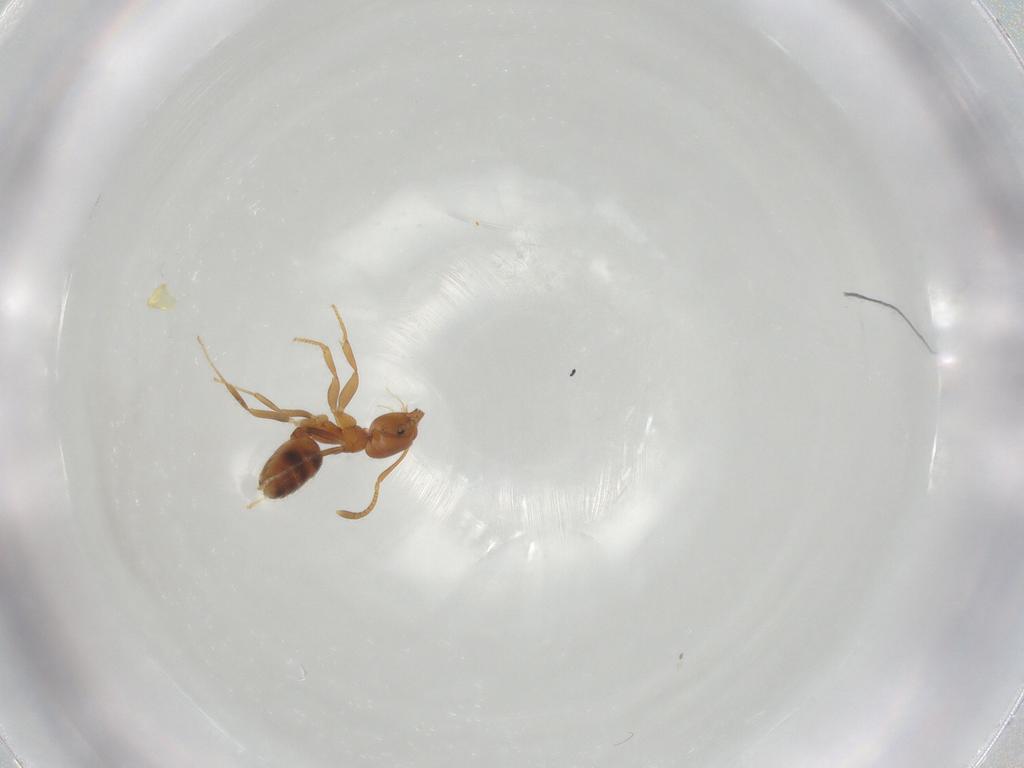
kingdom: Animalia
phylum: Arthropoda
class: Insecta
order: Hymenoptera
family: Formicidae
